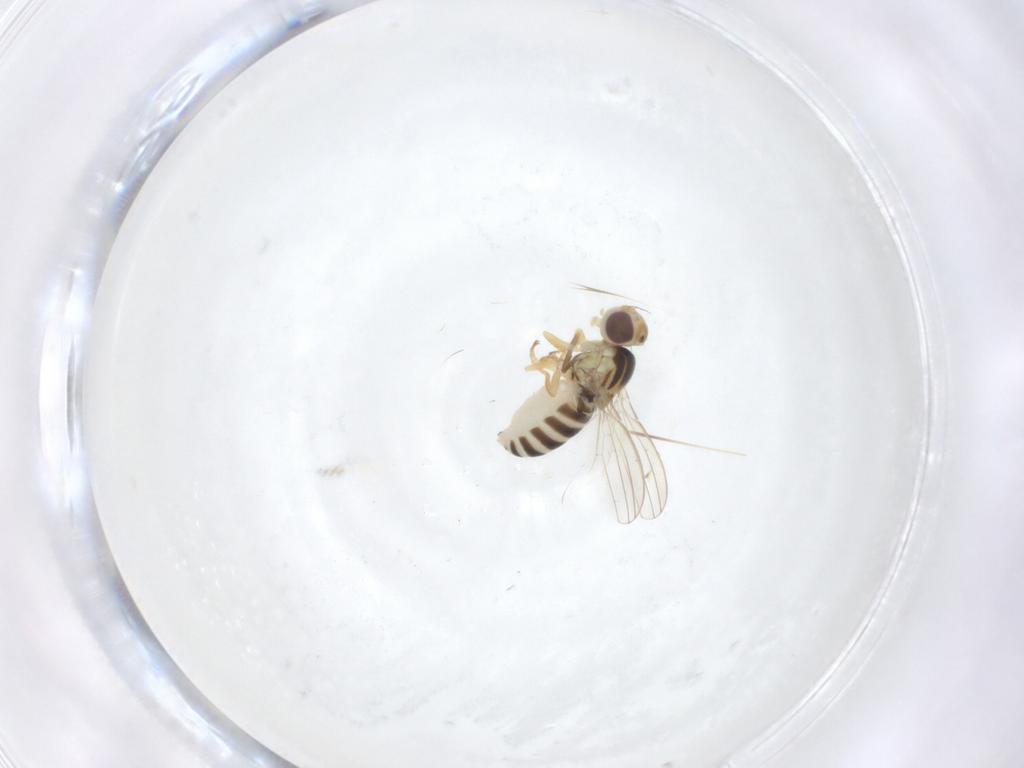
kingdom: Animalia
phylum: Arthropoda
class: Insecta
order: Diptera
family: Chyromyidae
